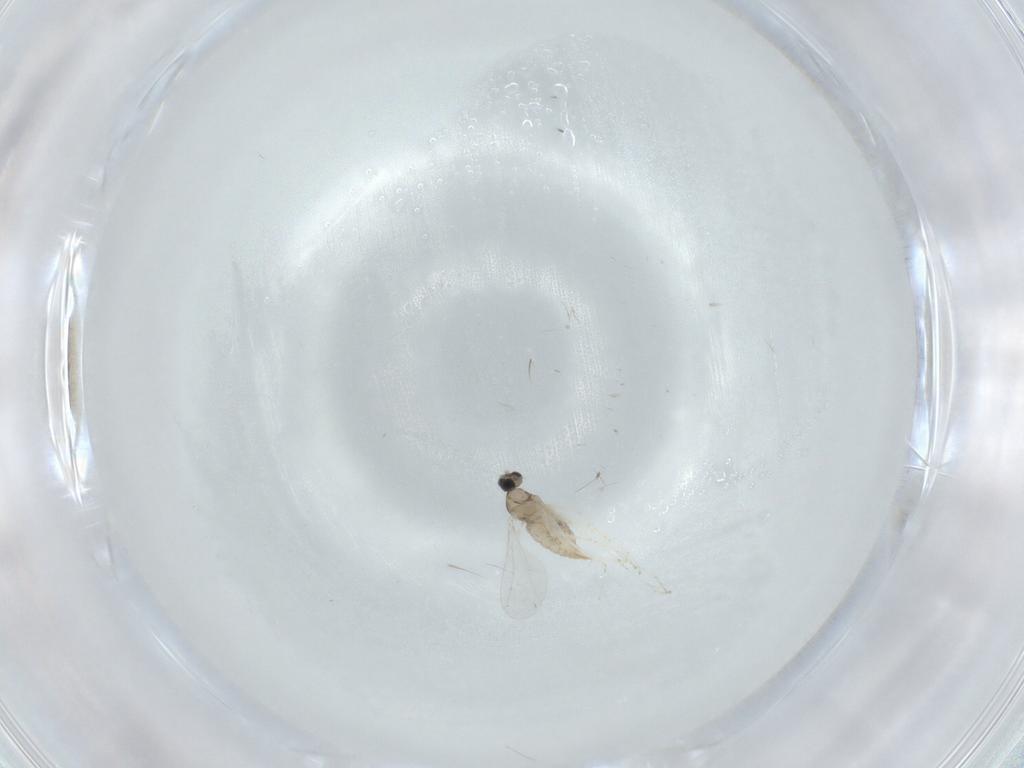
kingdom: Animalia
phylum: Arthropoda
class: Insecta
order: Diptera
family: Cecidomyiidae
